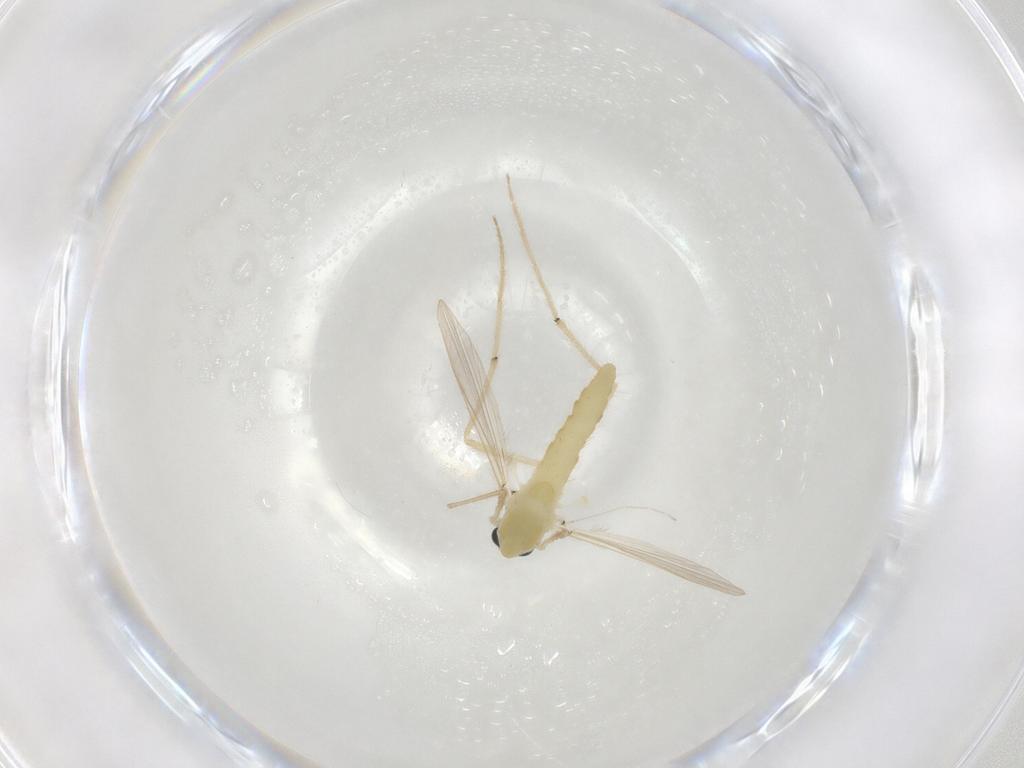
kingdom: Animalia
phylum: Arthropoda
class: Insecta
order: Diptera
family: Chironomidae
